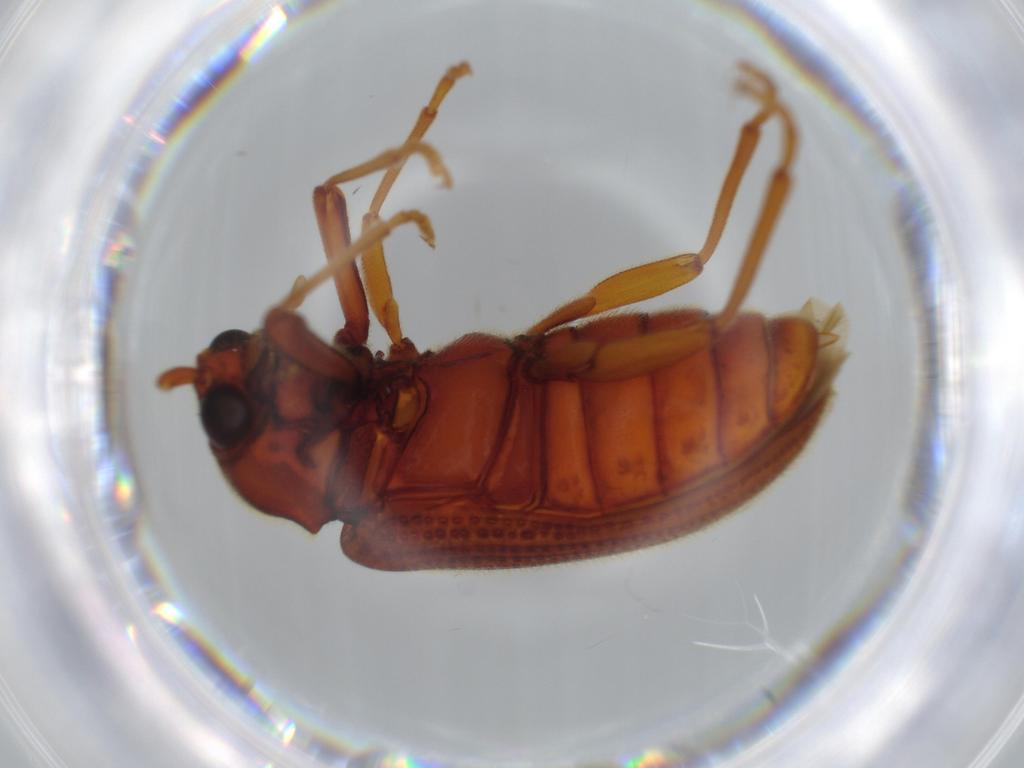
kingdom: Animalia
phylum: Arthropoda
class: Insecta
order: Coleoptera
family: Cerophytidae
